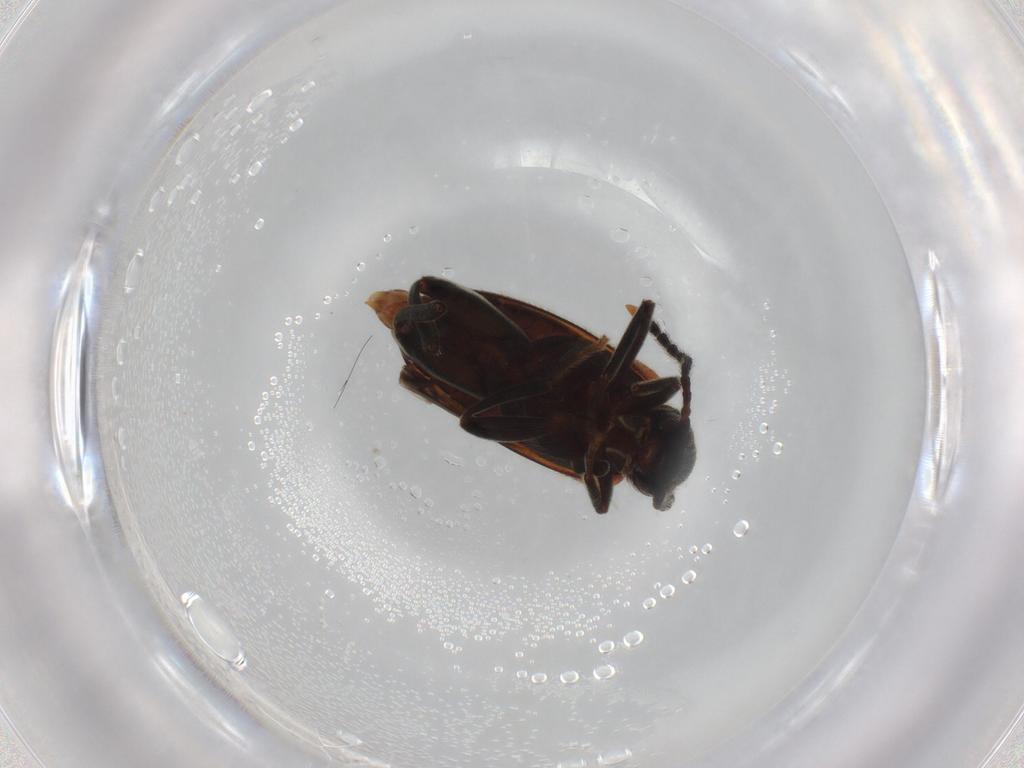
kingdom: Animalia
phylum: Arthropoda
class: Insecta
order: Coleoptera
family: Aderidae
